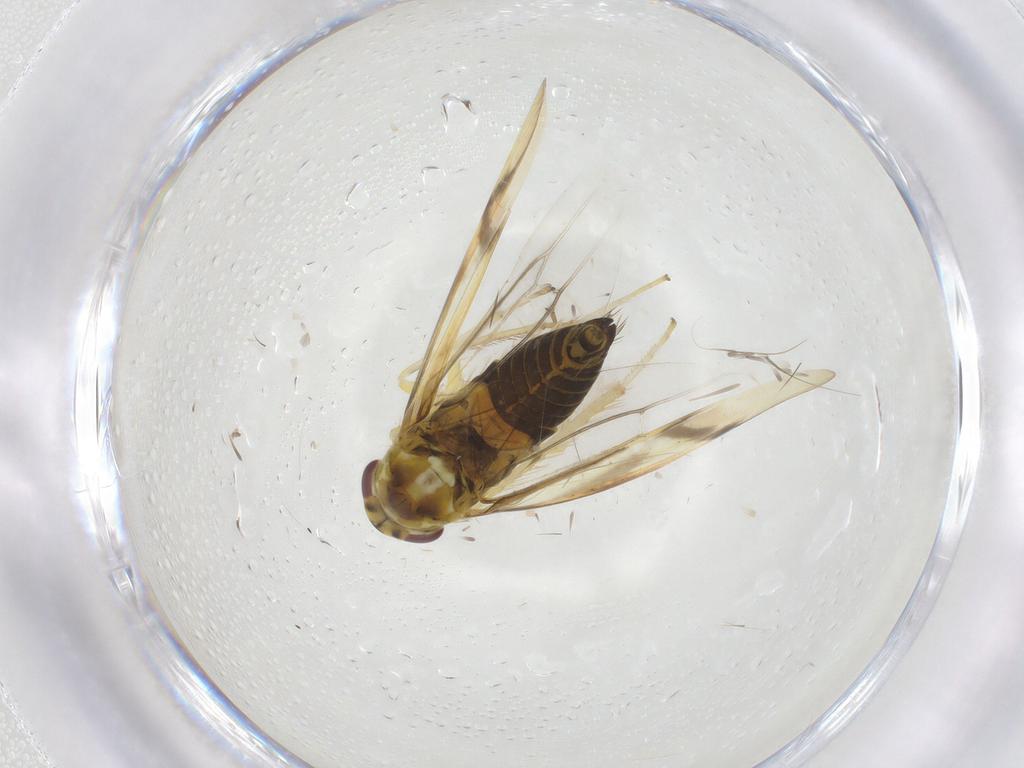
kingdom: Animalia
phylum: Arthropoda
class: Insecta
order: Hemiptera
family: Cicadellidae
